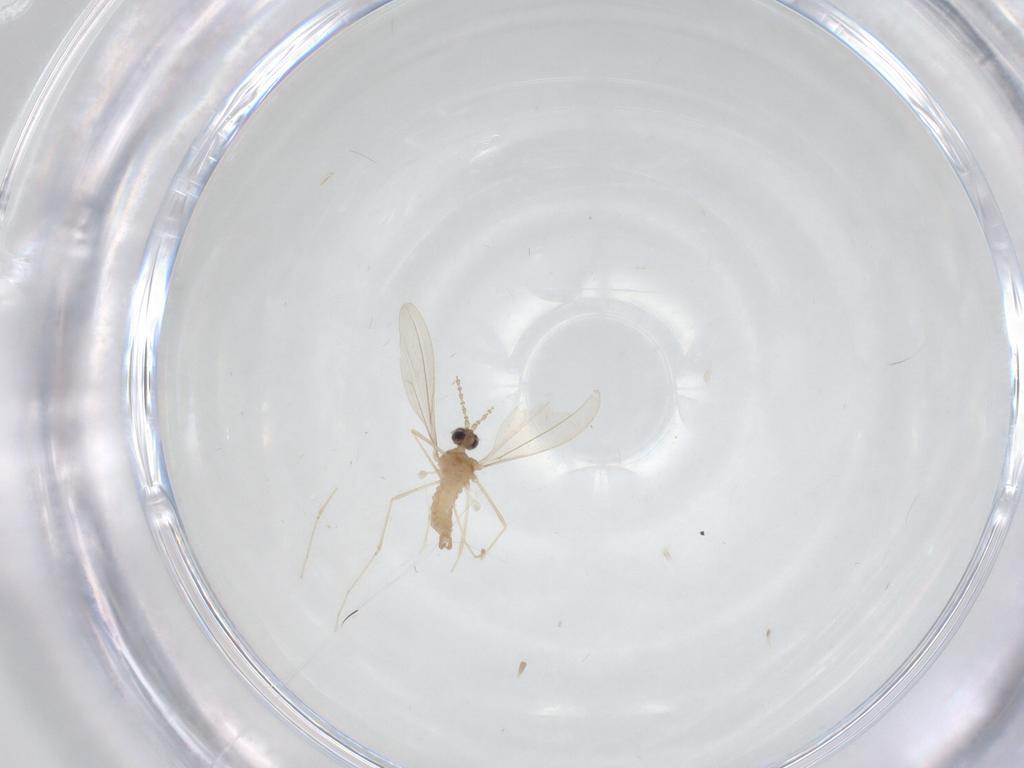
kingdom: Animalia
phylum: Arthropoda
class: Insecta
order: Diptera
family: Cecidomyiidae
